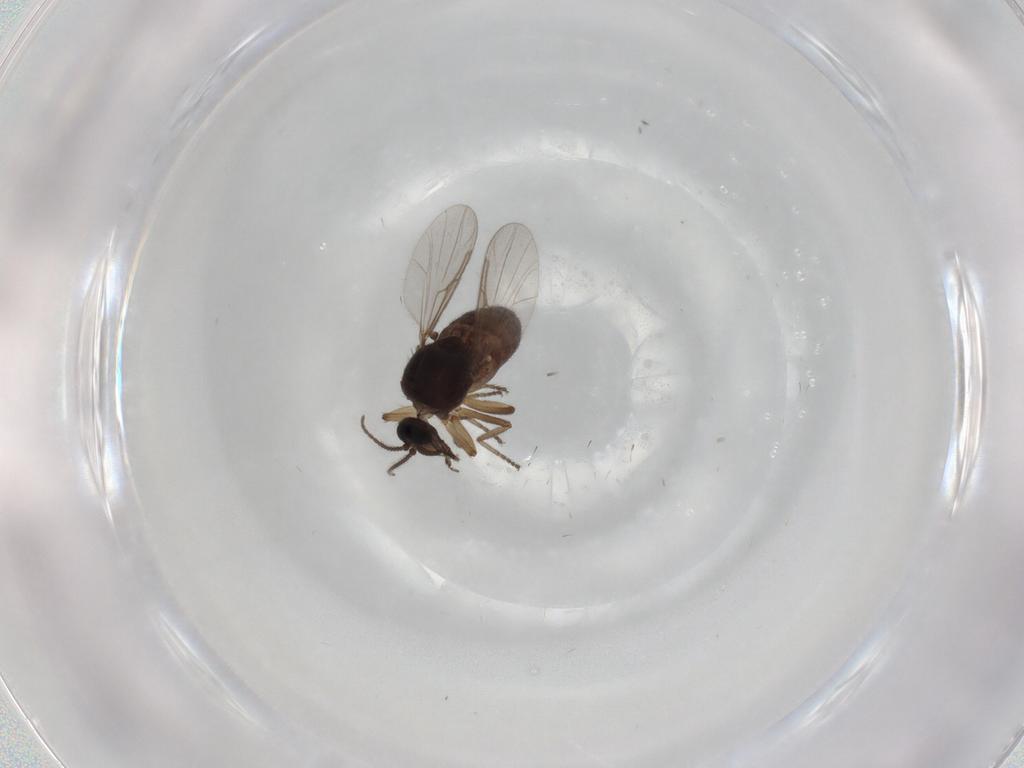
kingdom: Animalia
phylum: Arthropoda
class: Insecta
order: Diptera
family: Ceratopogonidae
